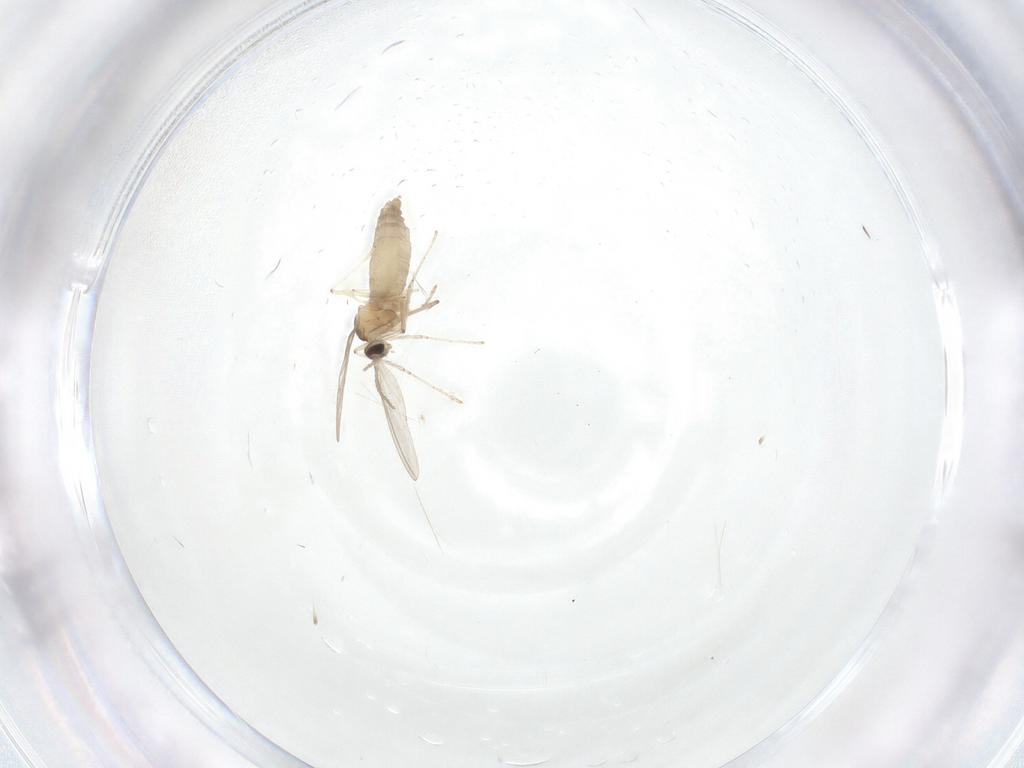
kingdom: Animalia
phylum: Arthropoda
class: Insecta
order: Diptera
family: Cecidomyiidae
